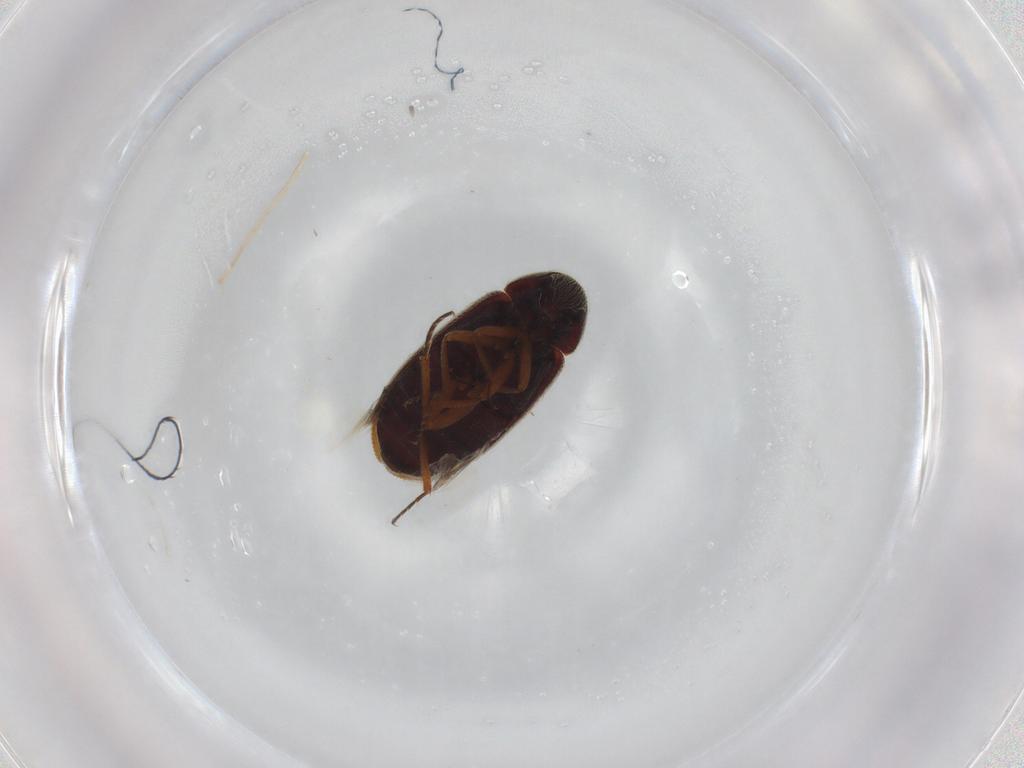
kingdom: Animalia
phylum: Arthropoda
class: Insecta
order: Coleoptera
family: Rhadalidae
